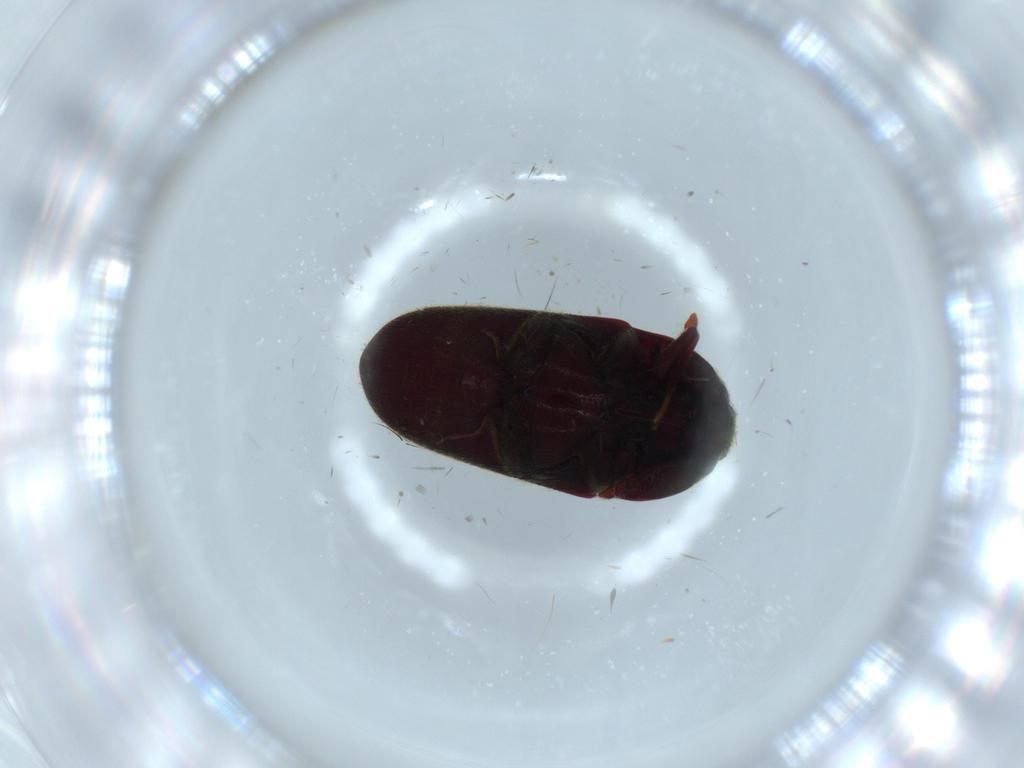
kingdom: Animalia
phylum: Arthropoda
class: Insecta
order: Coleoptera
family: Throscidae
